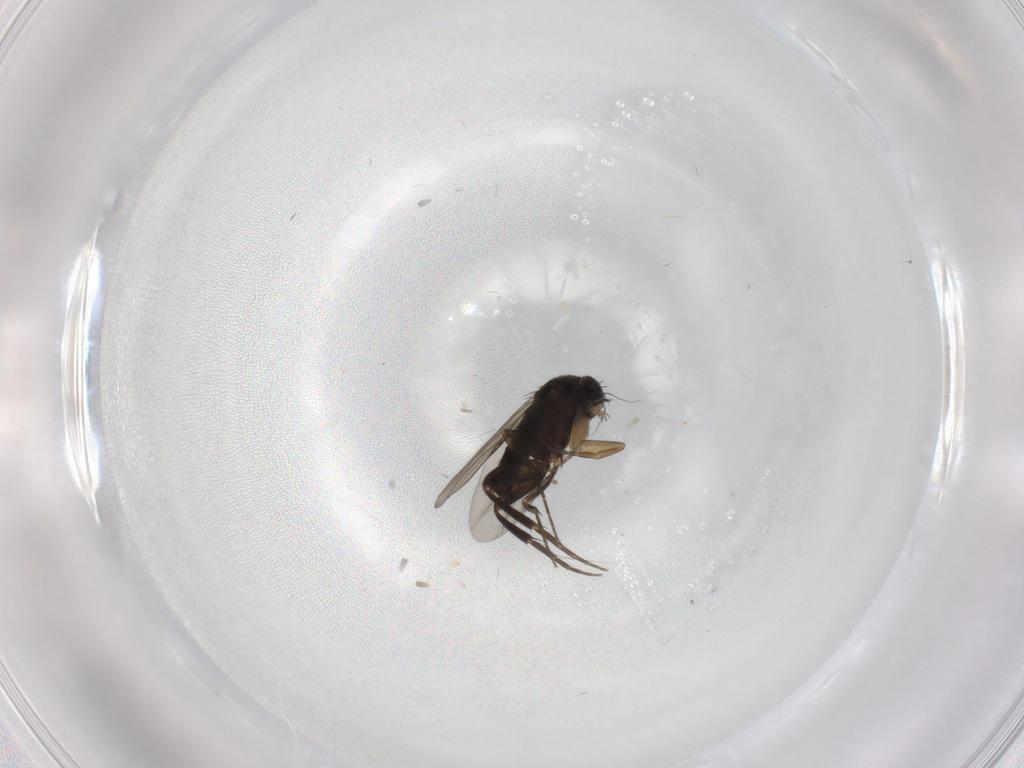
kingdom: Animalia
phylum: Arthropoda
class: Insecta
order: Diptera
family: Phoridae
